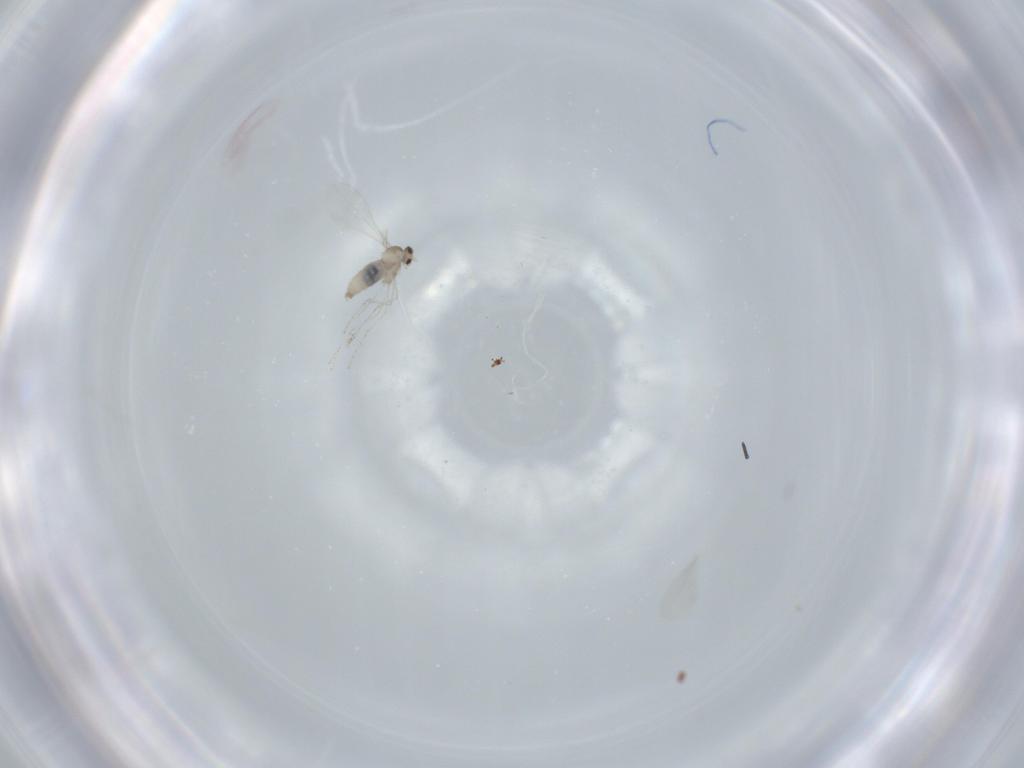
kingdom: Animalia
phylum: Arthropoda
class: Insecta
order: Diptera
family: Cecidomyiidae
